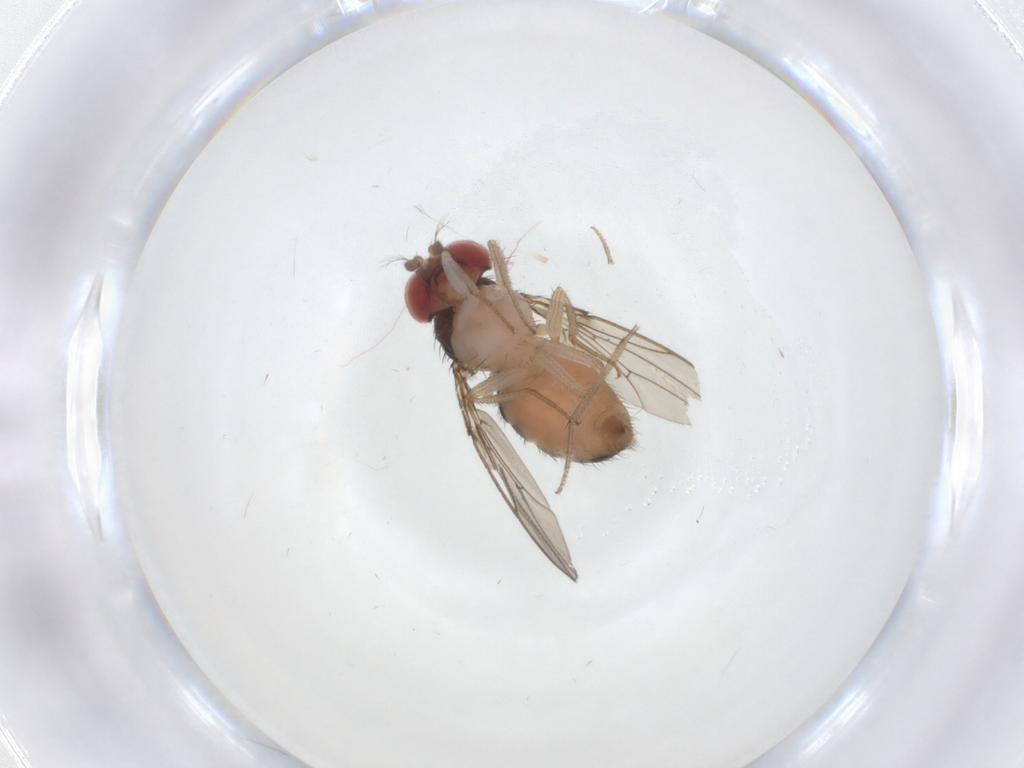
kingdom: Animalia
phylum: Arthropoda
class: Insecta
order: Diptera
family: Drosophilidae
